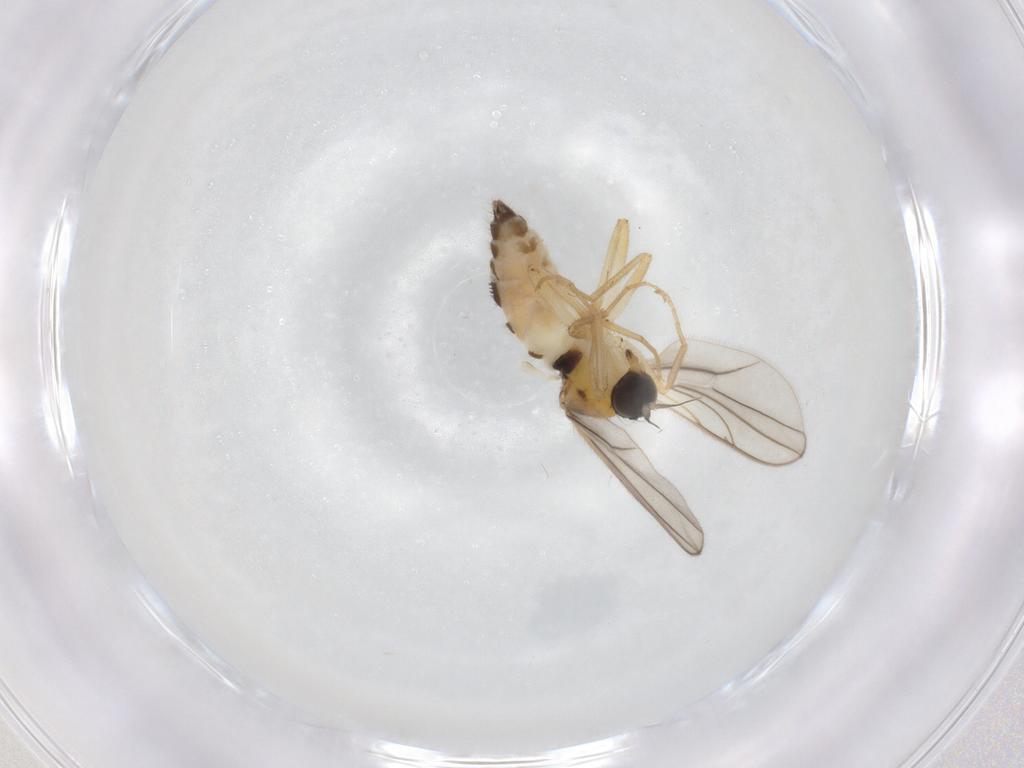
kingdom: Animalia
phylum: Arthropoda
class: Insecta
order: Diptera
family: Hybotidae
